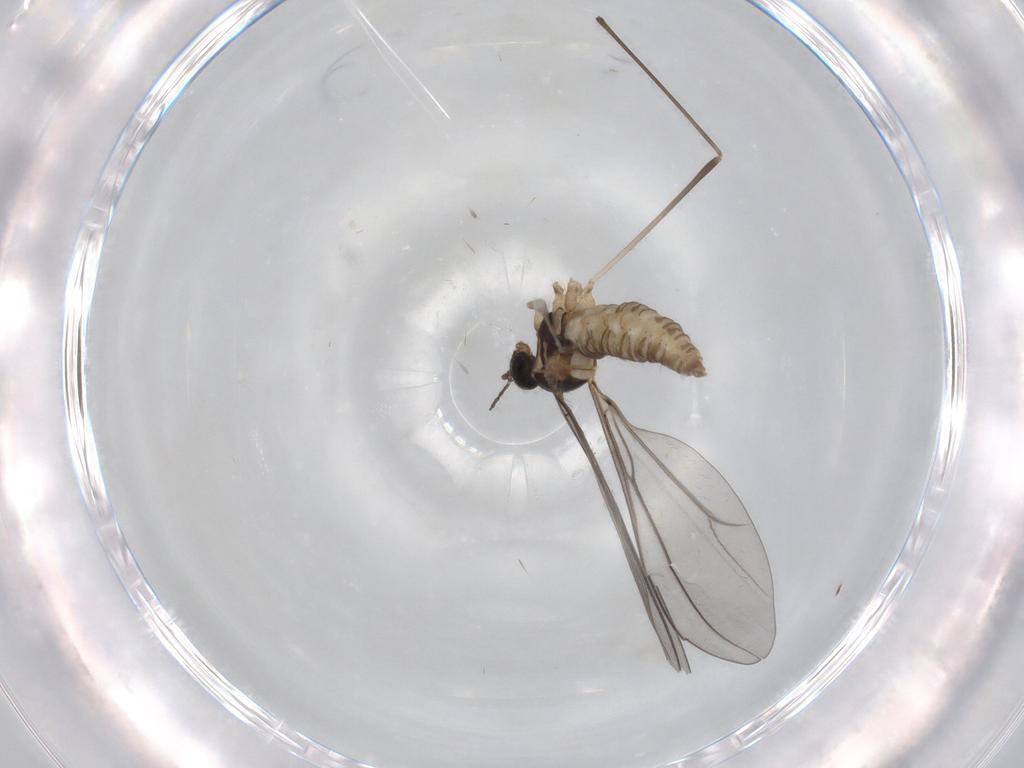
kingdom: Animalia
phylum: Arthropoda
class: Insecta
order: Diptera
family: Cecidomyiidae
